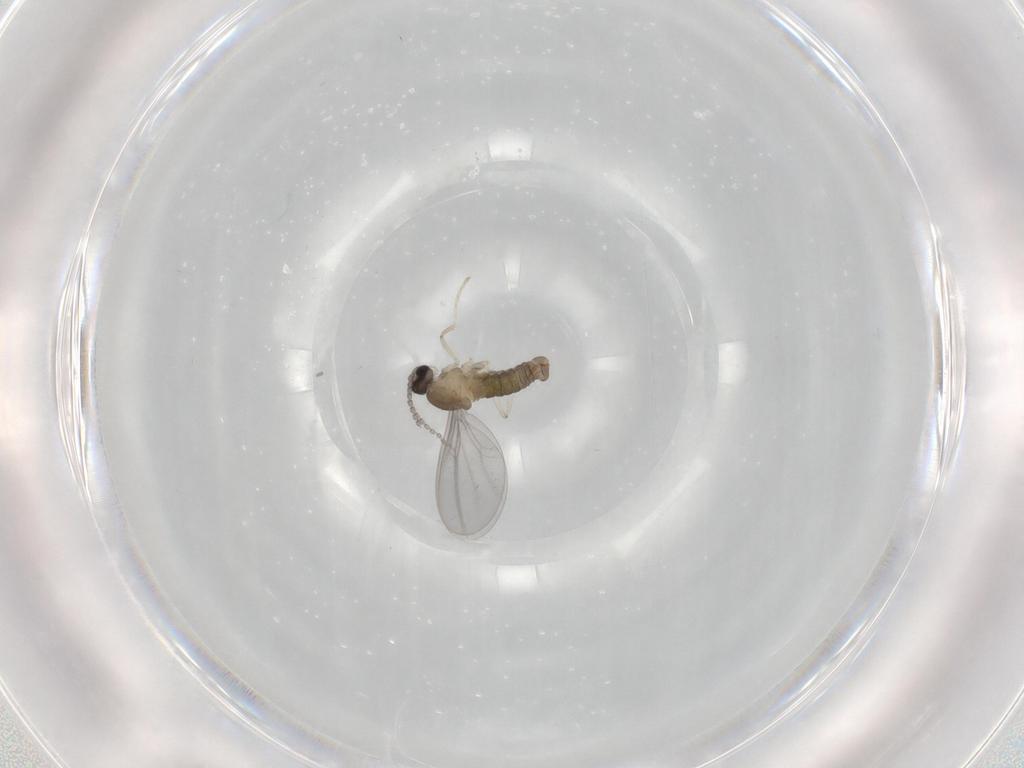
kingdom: Animalia
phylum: Arthropoda
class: Insecta
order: Diptera
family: Cecidomyiidae
